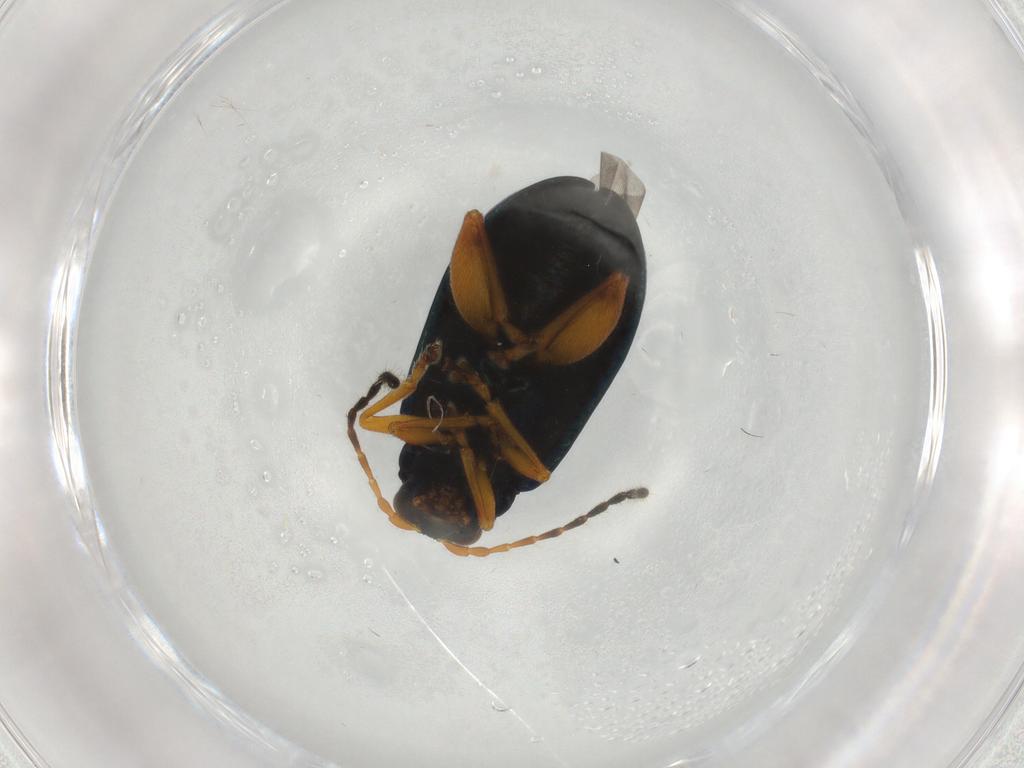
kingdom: Animalia
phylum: Arthropoda
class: Insecta
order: Coleoptera
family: Chrysomelidae
